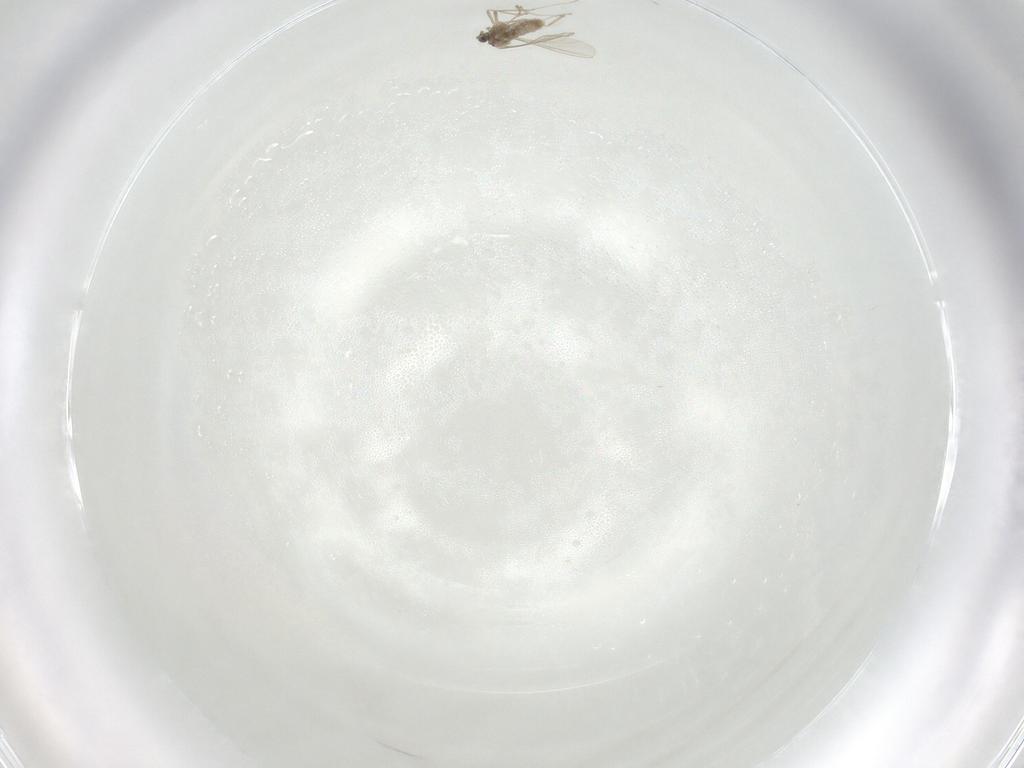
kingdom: Animalia
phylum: Arthropoda
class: Insecta
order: Diptera
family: Cecidomyiidae
